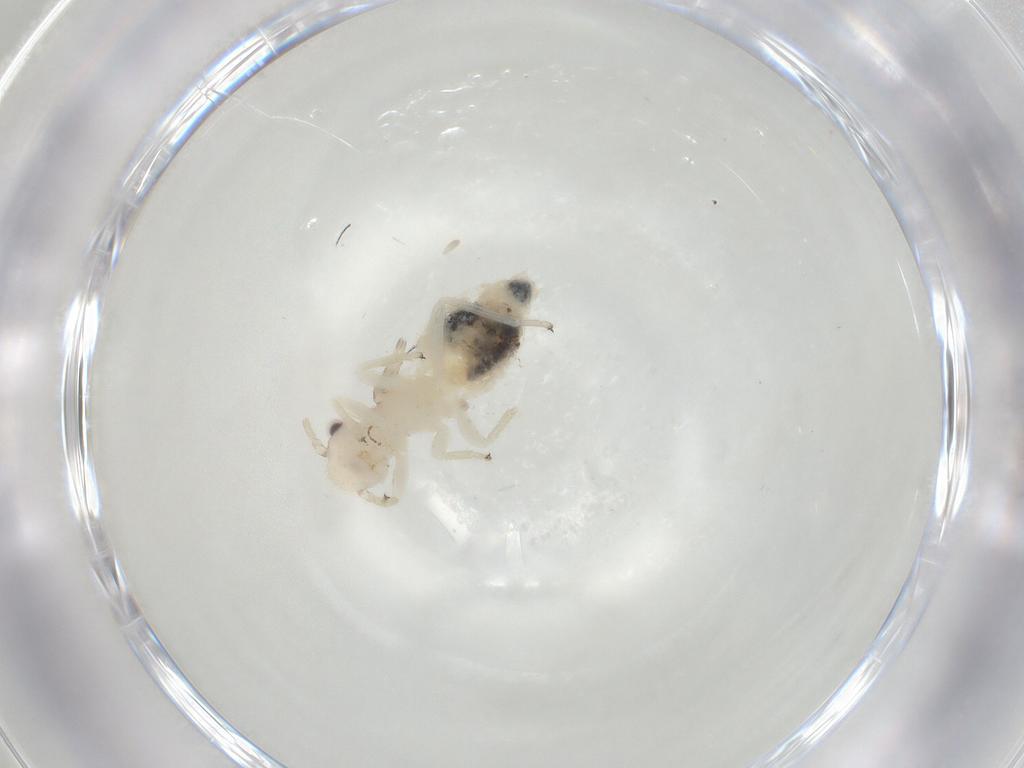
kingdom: Animalia
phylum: Arthropoda
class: Insecta
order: Psocodea
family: Amphipsocidae
